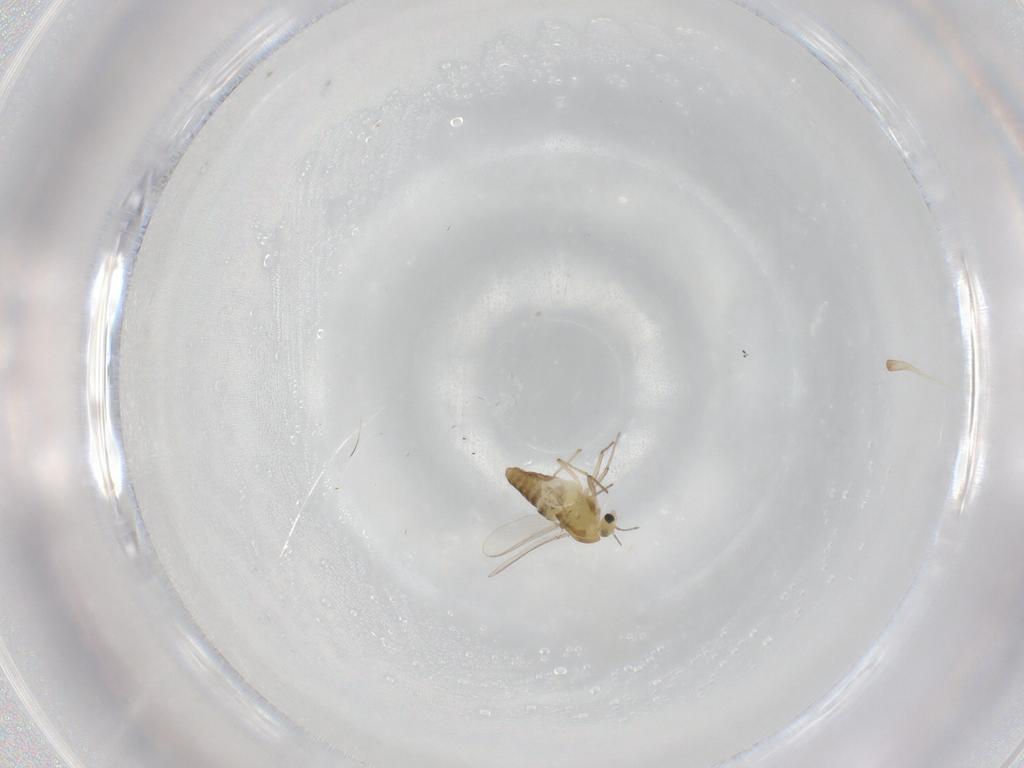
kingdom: Animalia
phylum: Arthropoda
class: Insecta
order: Diptera
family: Chironomidae
